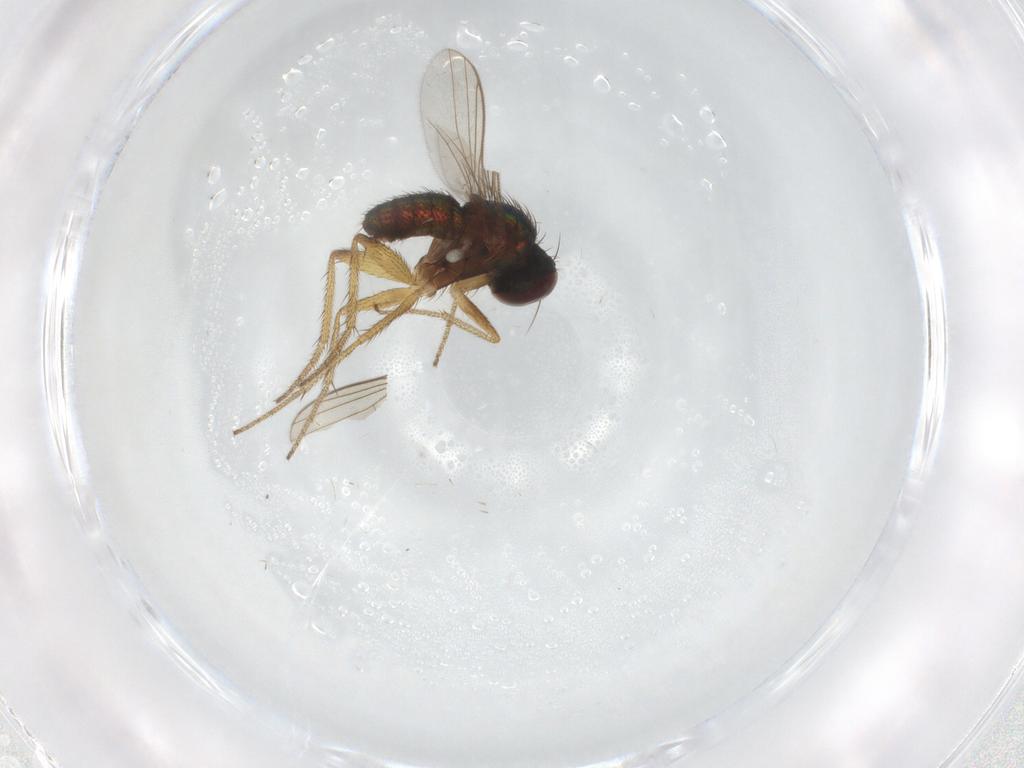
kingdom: Animalia
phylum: Arthropoda
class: Insecta
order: Diptera
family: Dolichopodidae
